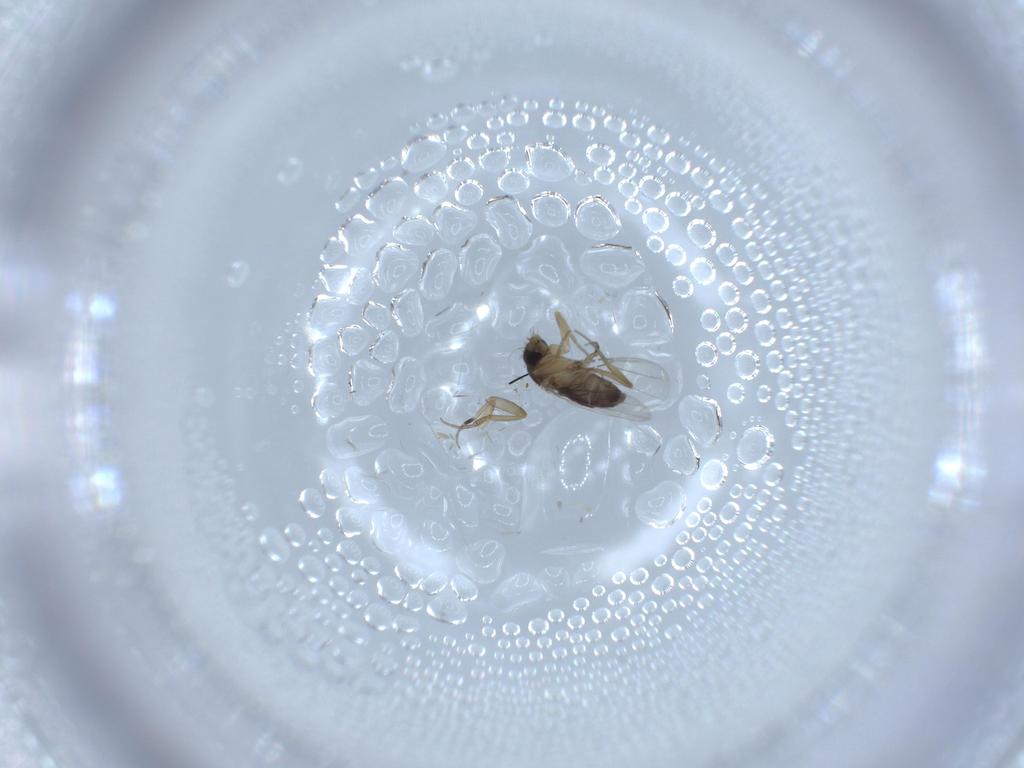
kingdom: Animalia
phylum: Arthropoda
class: Insecta
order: Diptera
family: Phoridae
